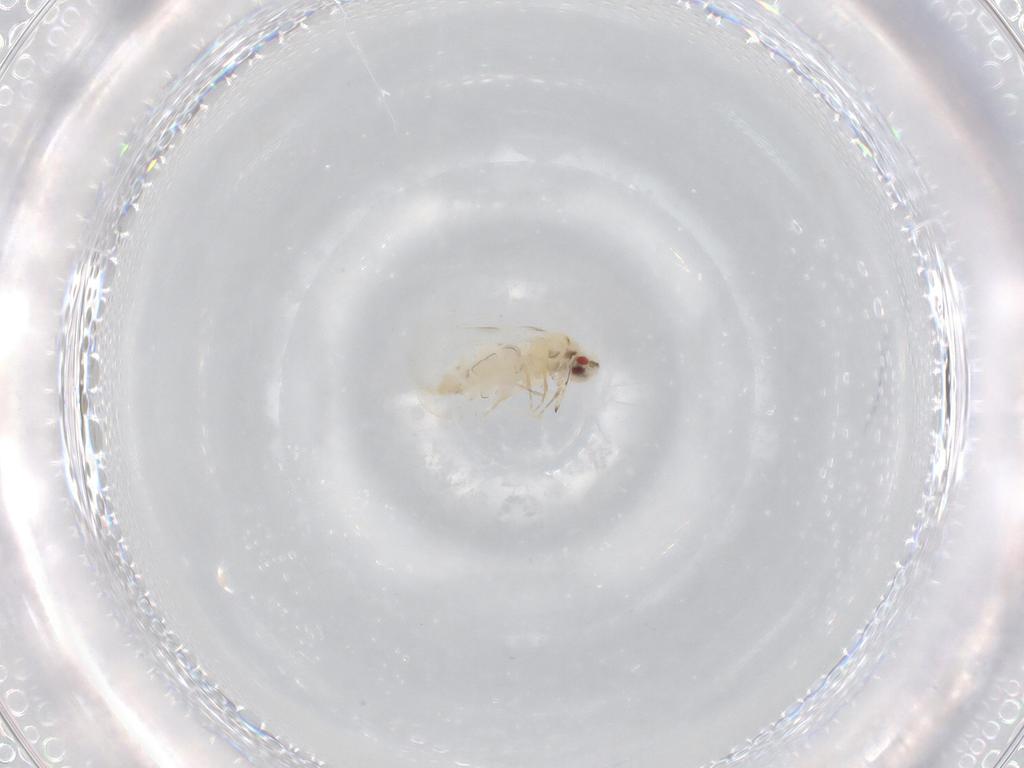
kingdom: Animalia
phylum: Arthropoda
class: Insecta
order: Hemiptera
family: Aleyrodidae
